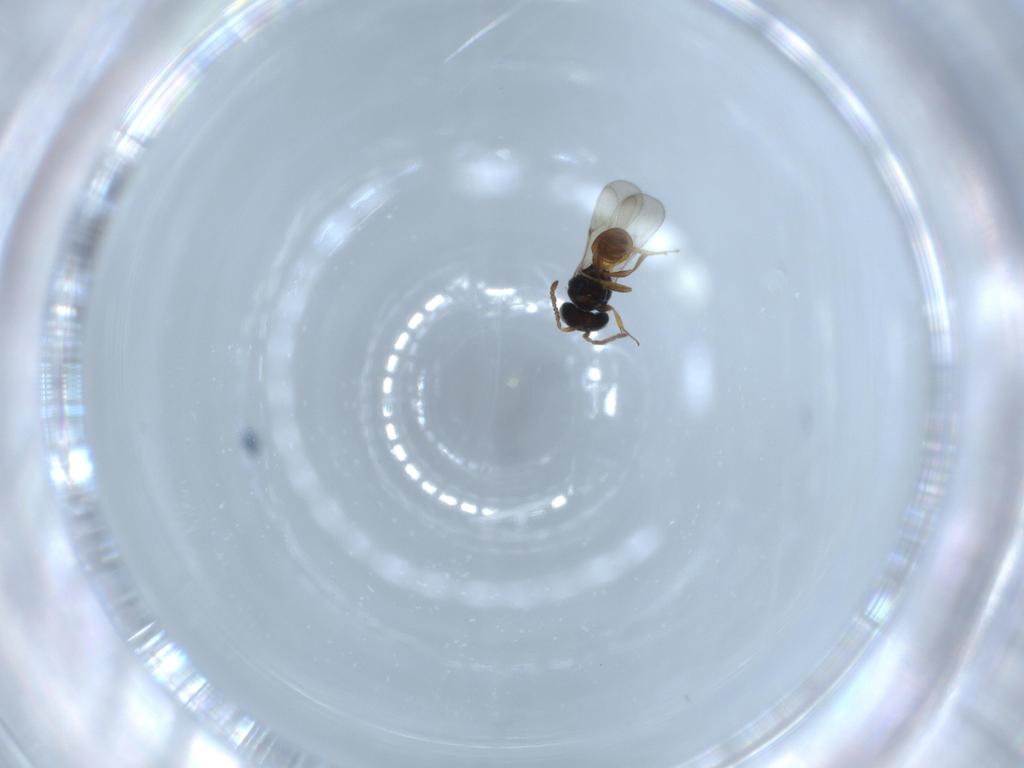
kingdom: Animalia
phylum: Arthropoda
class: Insecta
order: Hymenoptera
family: Scelionidae
